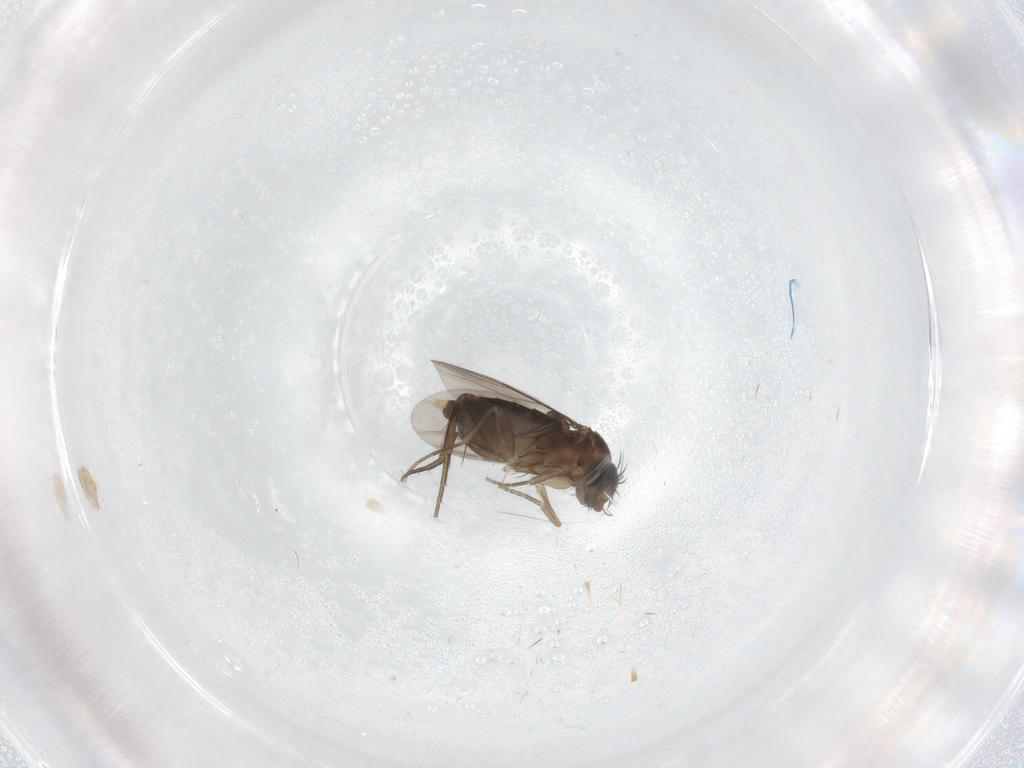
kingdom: Animalia
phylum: Arthropoda
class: Insecta
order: Diptera
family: Phoridae
